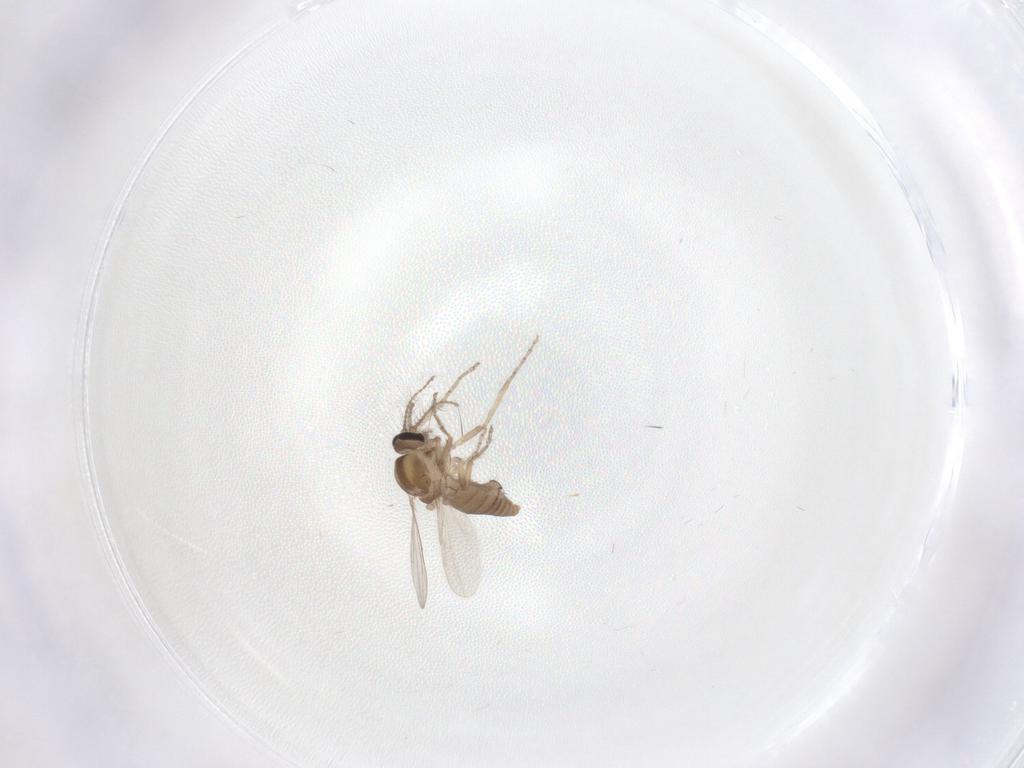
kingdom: Animalia
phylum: Arthropoda
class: Insecta
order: Diptera
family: Ceratopogonidae
